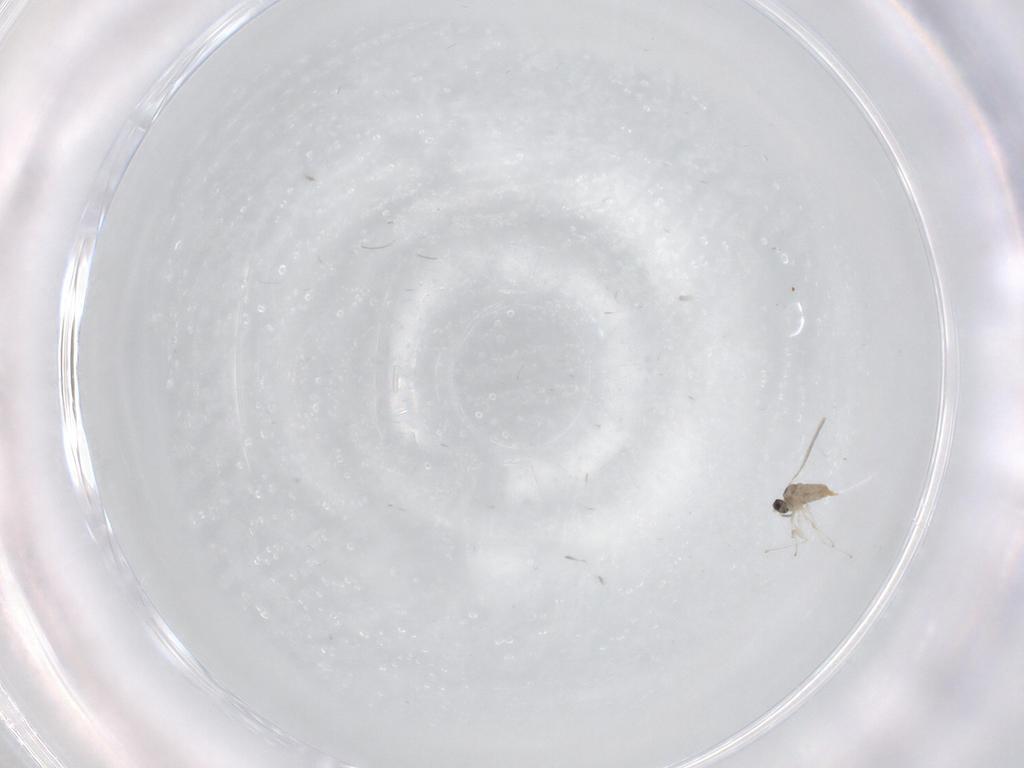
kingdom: Animalia
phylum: Arthropoda
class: Insecta
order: Diptera
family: Cecidomyiidae
